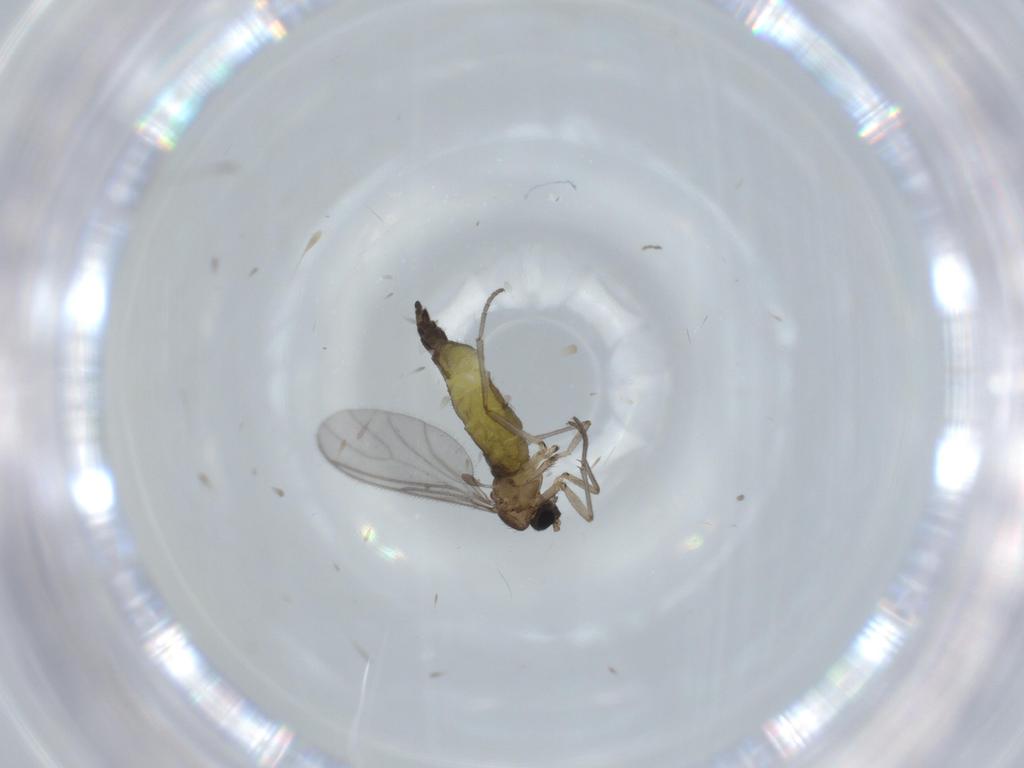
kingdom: Animalia
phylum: Arthropoda
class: Insecta
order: Diptera
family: Sciaridae
